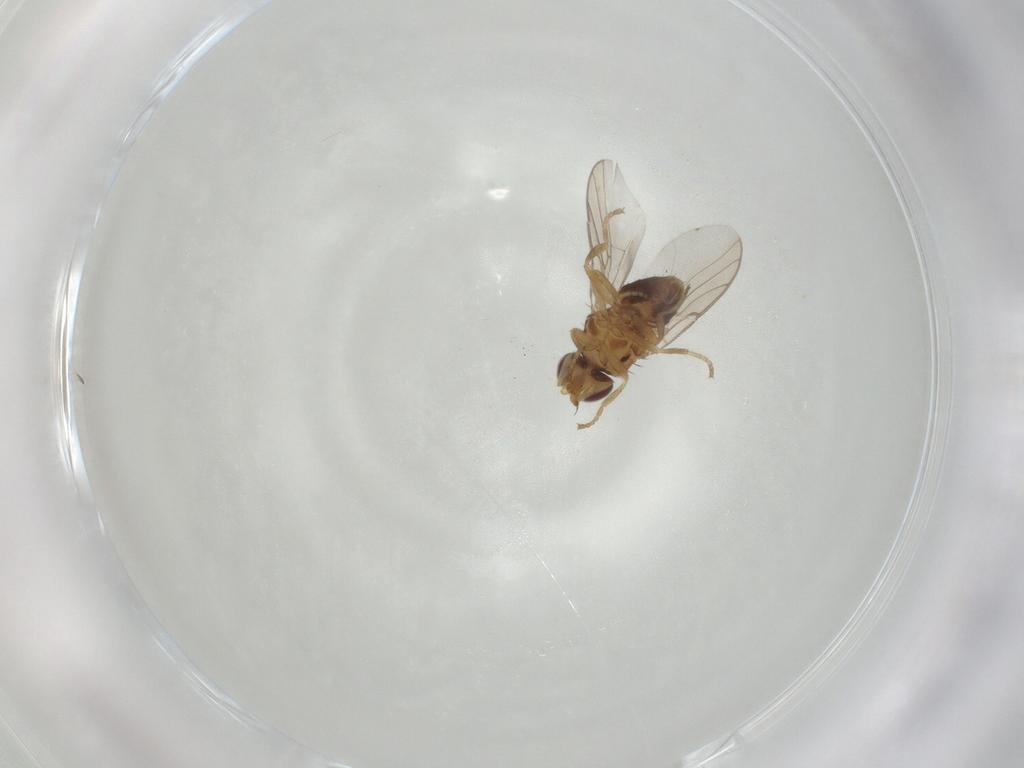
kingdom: Animalia
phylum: Arthropoda
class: Insecta
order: Diptera
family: Chloropidae
